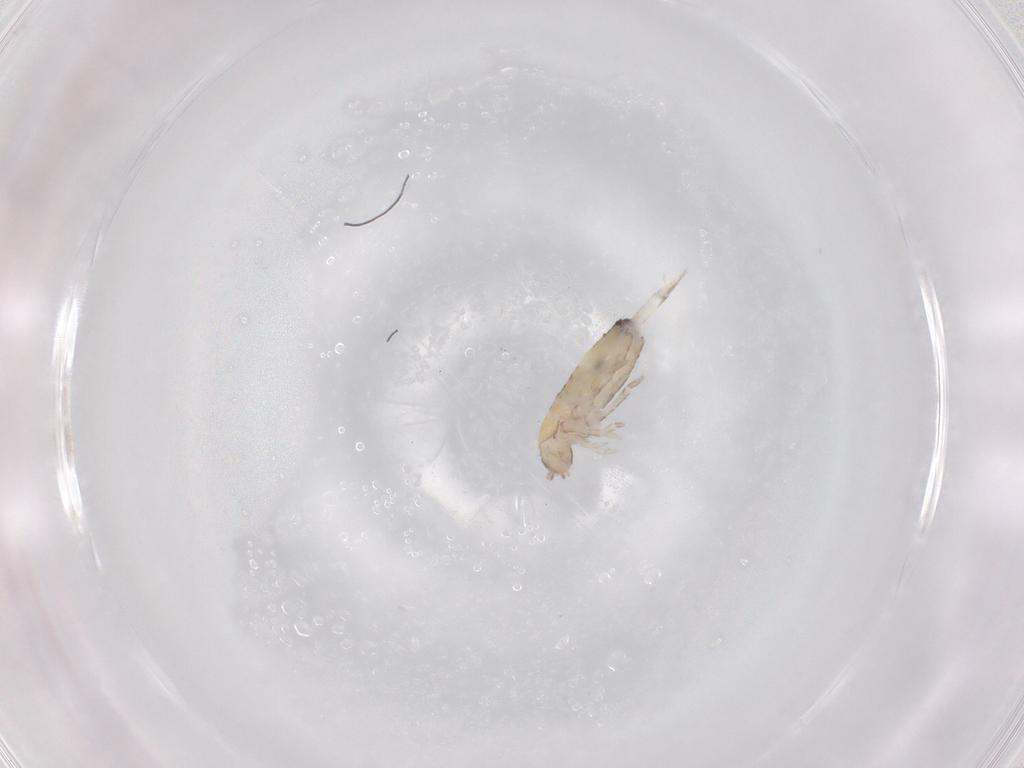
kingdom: Animalia
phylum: Arthropoda
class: Collembola
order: Entomobryomorpha
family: Entomobryidae
